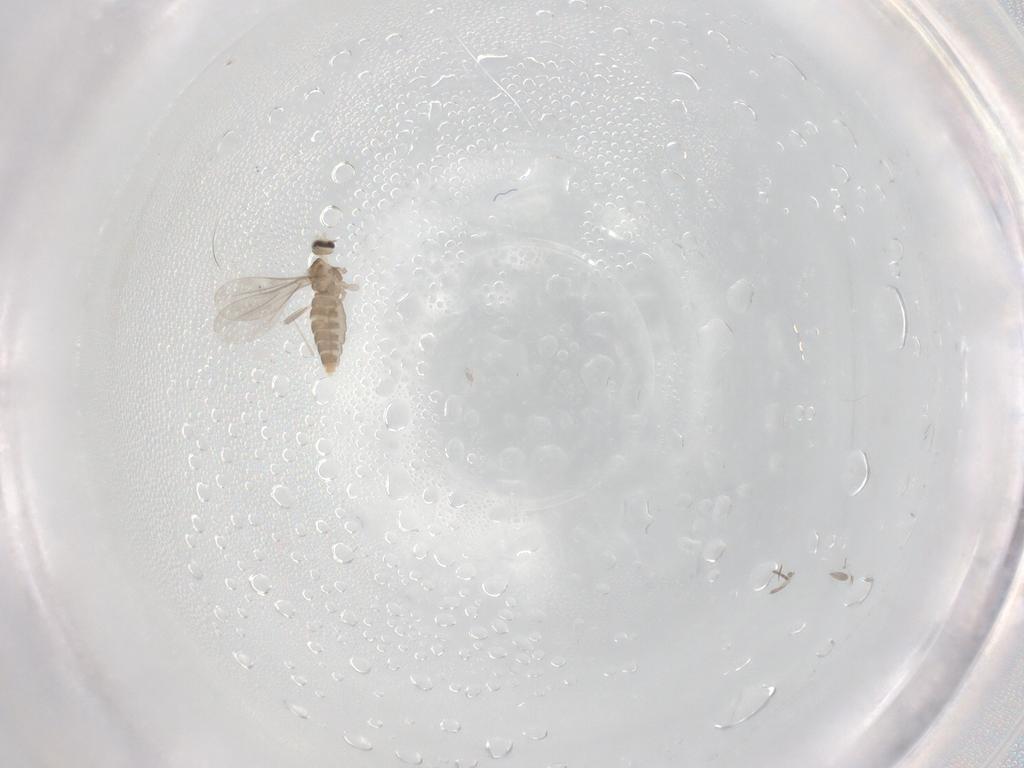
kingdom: Animalia
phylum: Arthropoda
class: Insecta
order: Diptera
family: Cecidomyiidae
